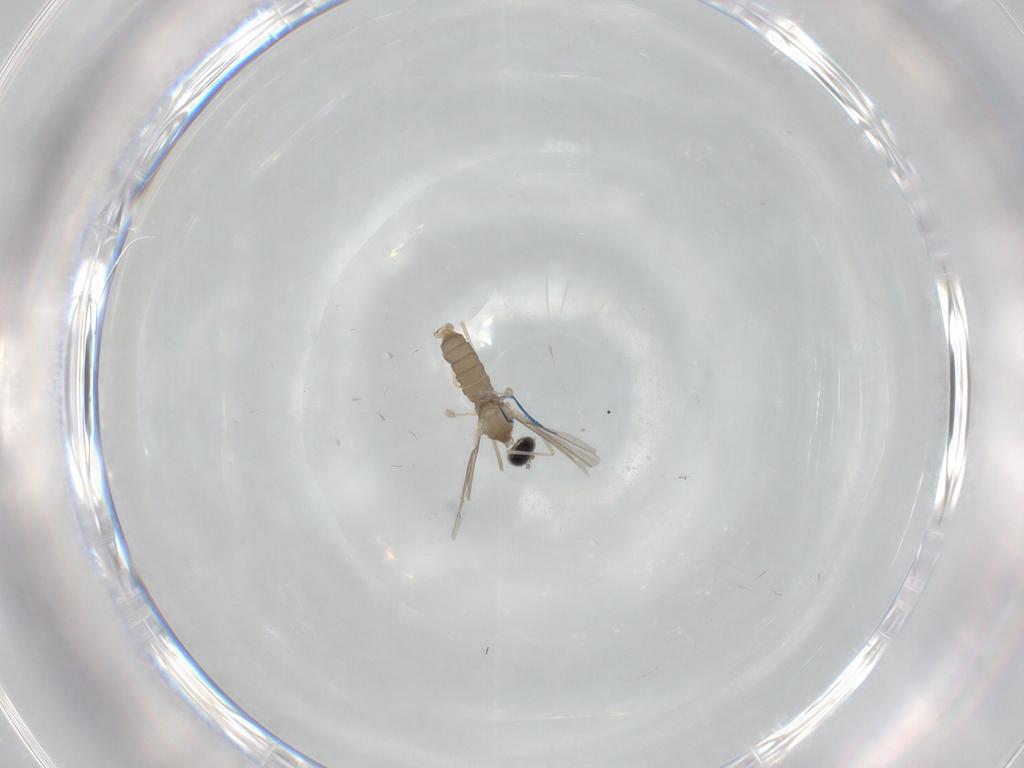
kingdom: Animalia
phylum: Arthropoda
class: Insecta
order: Diptera
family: Cecidomyiidae
